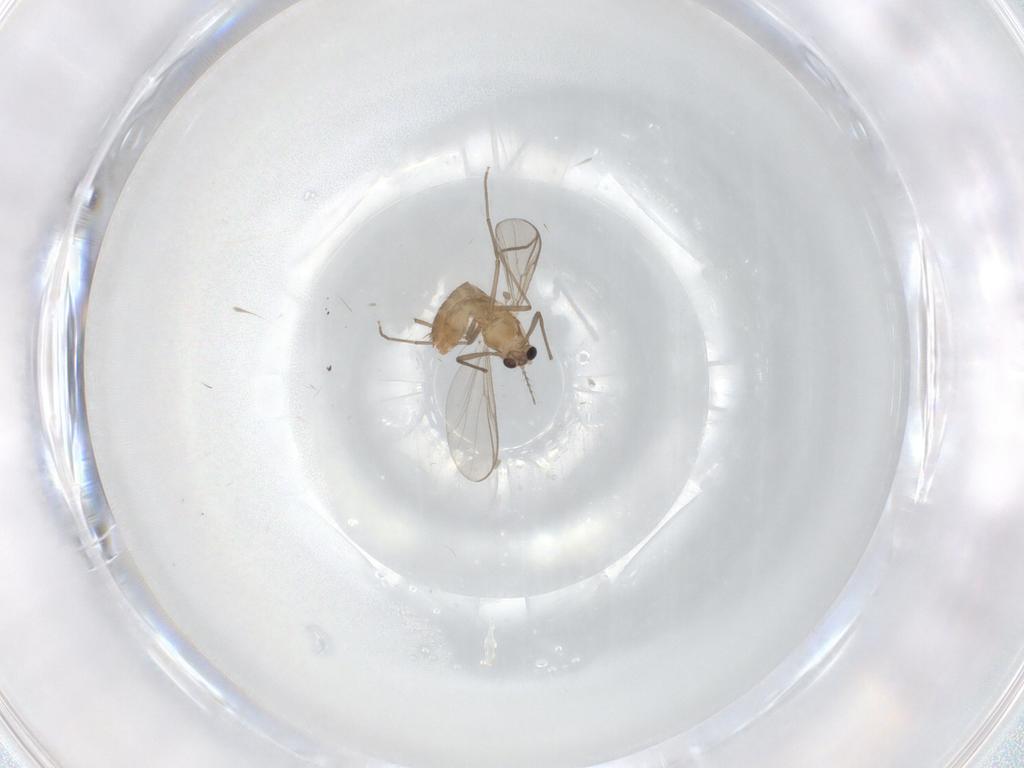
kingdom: Animalia
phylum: Arthropoda
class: Insecta
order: Diptera
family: Chironomidae
